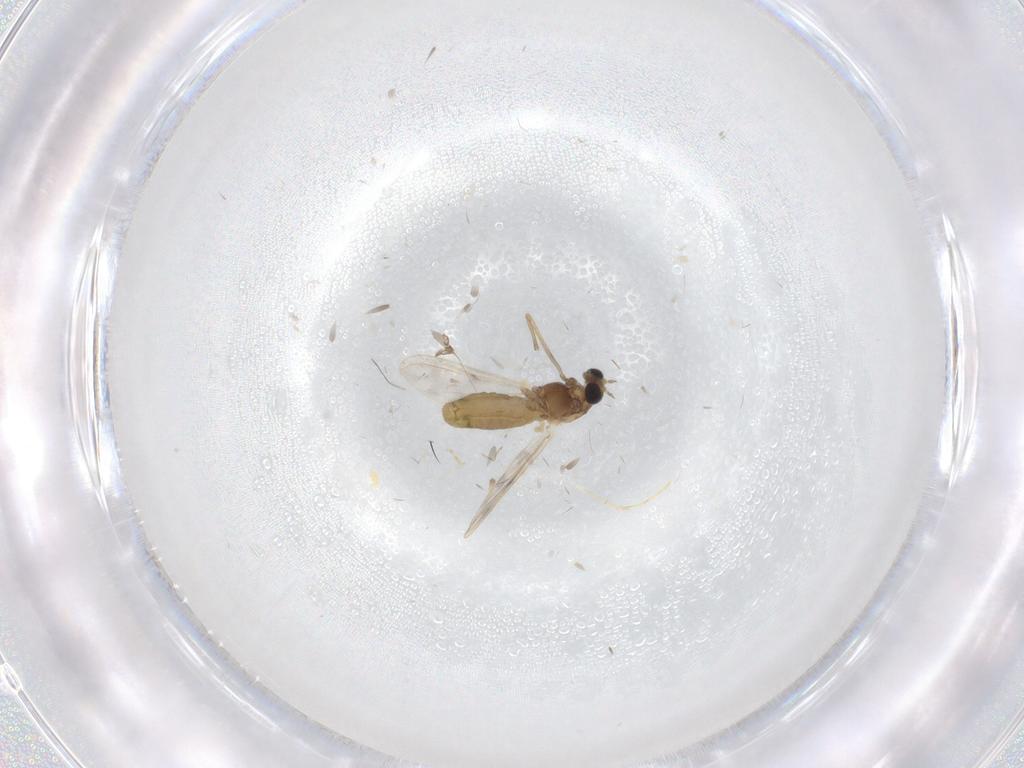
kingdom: Animalia
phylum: Arthropoda
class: Insecta
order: Diptera
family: Chironomidae
